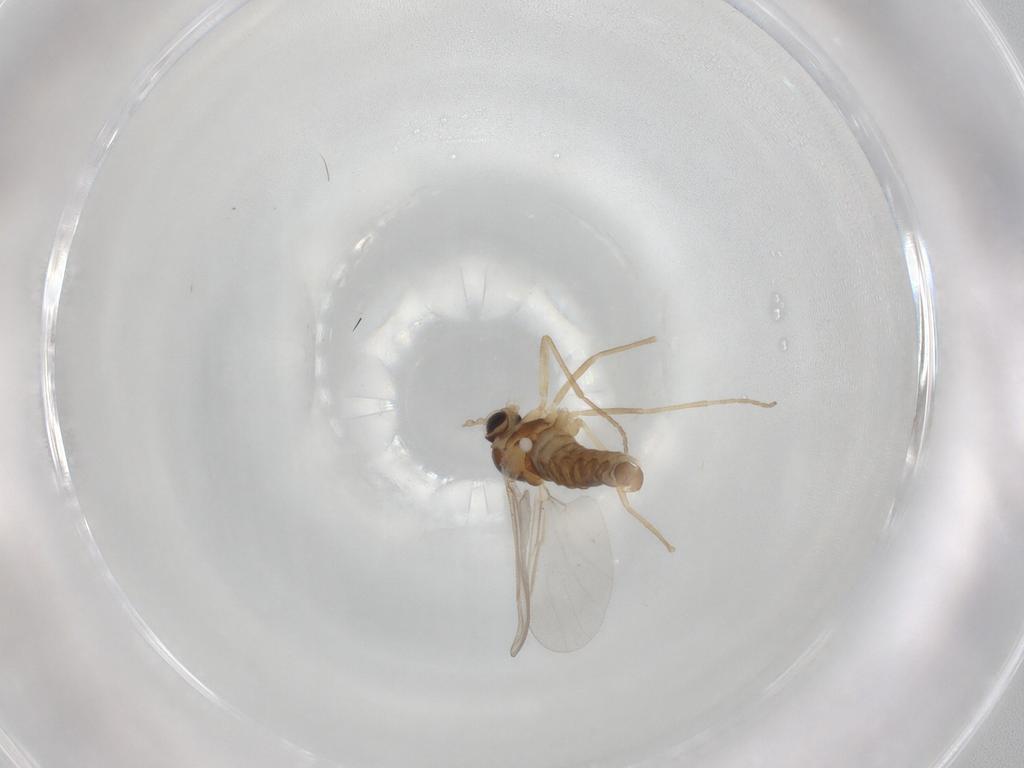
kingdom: Animalia
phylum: Arthropoda
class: Insecta
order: Diptera
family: Cecidomyiidae
